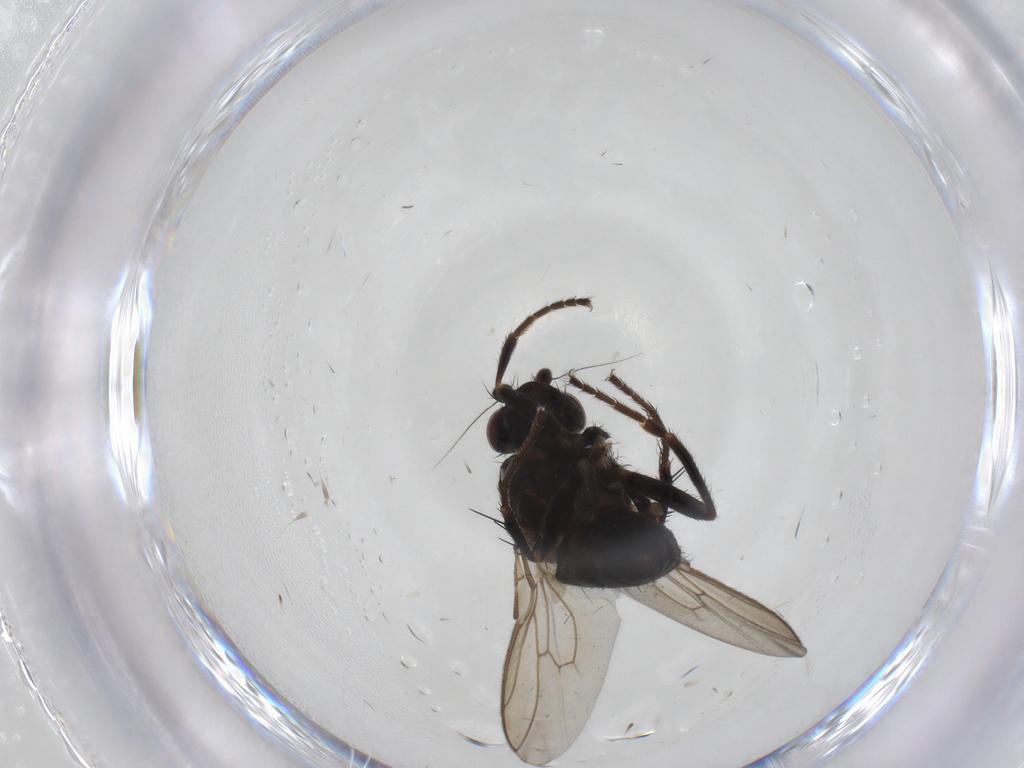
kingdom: Animalia
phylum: Arthropoda
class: Insecta
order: Diptera
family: Sphaeroceridae
